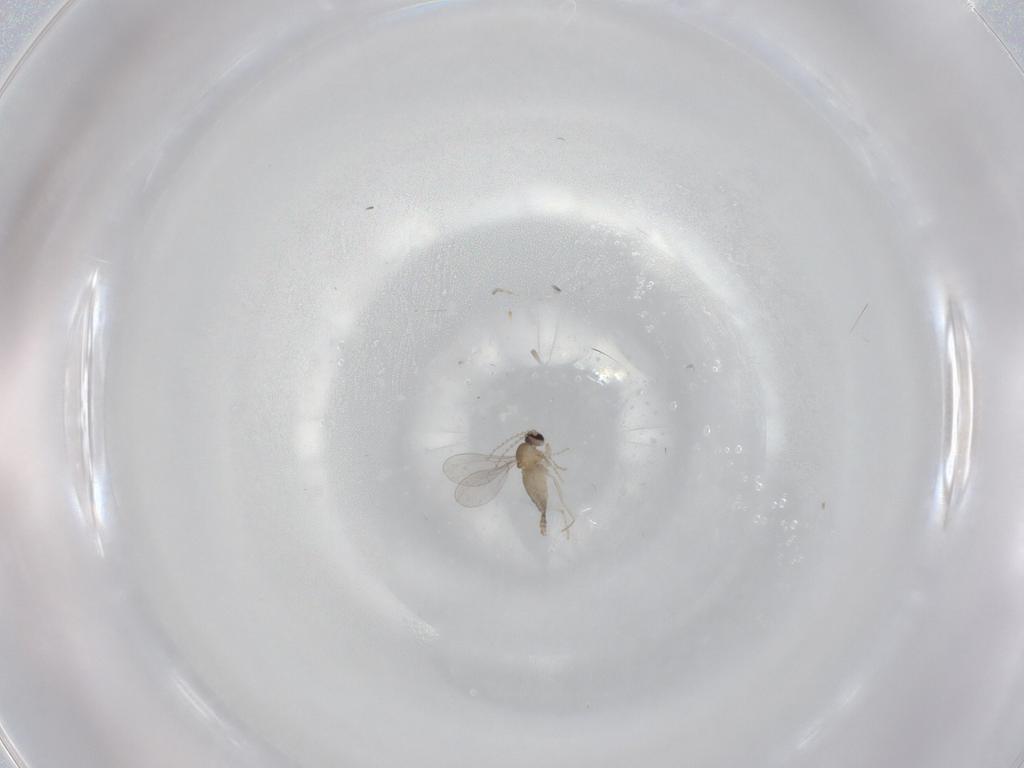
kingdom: Animalia
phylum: Arthropoda
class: Insecta
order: Diptera
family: Cecidomyiidae
